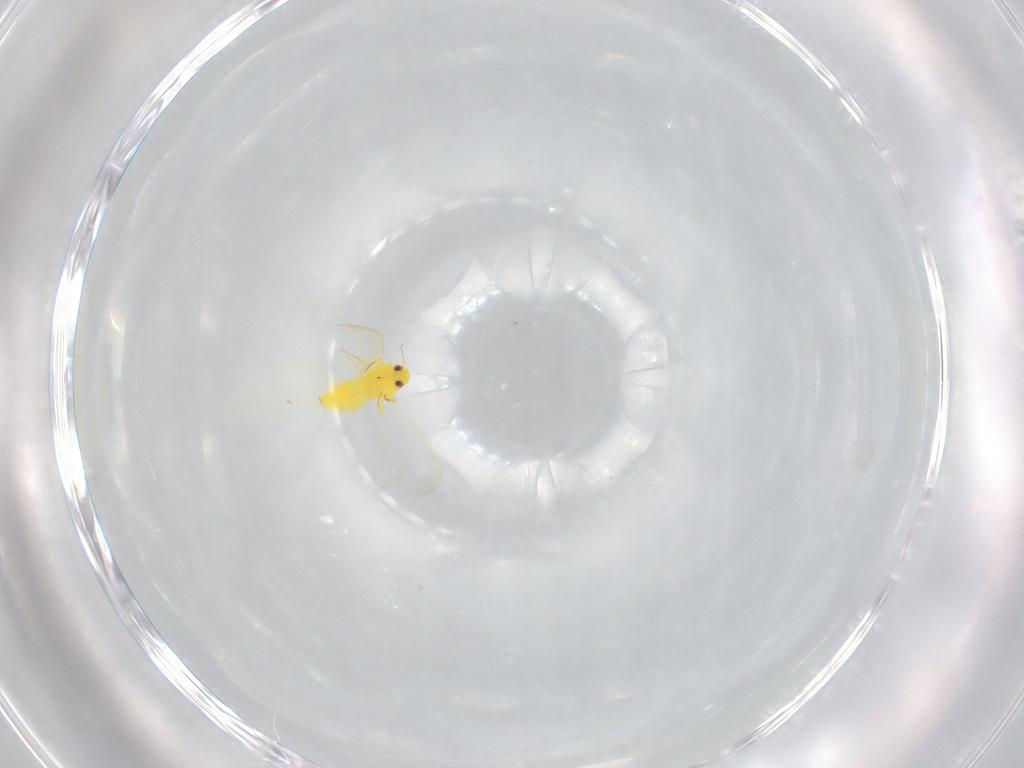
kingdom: Animalia
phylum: Arthropoda
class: Insecta
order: Hemiptera
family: Aleyrodidae
